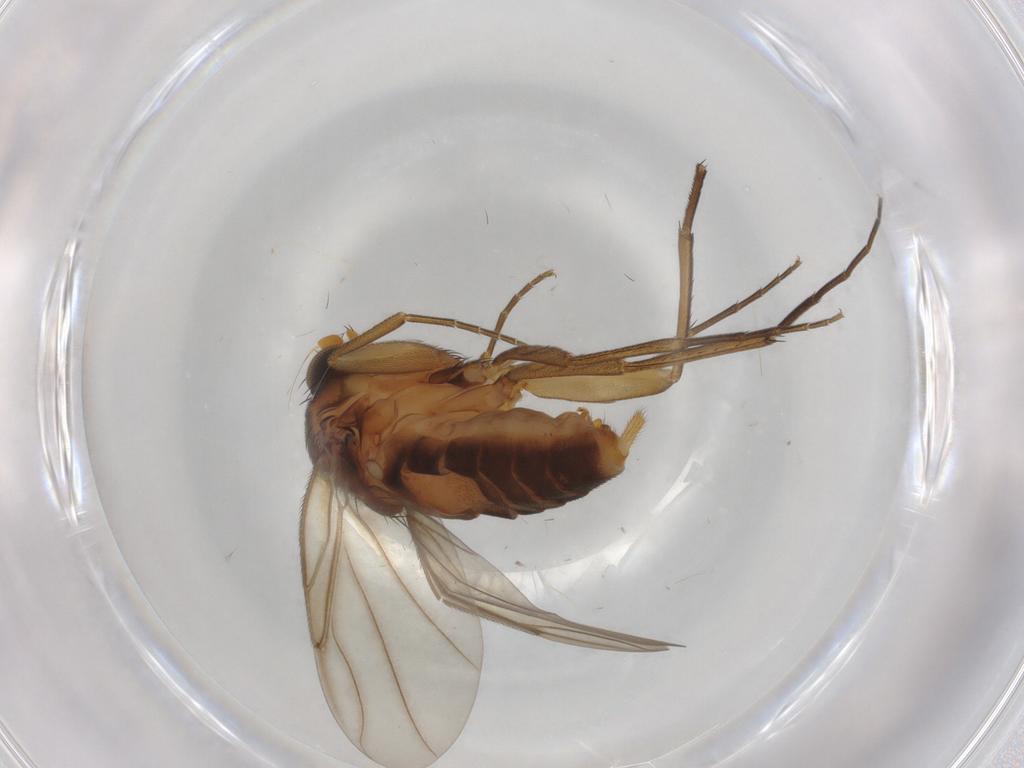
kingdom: Animalia
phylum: Arthropoda
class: Insecta
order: Diptera
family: Phoridae
